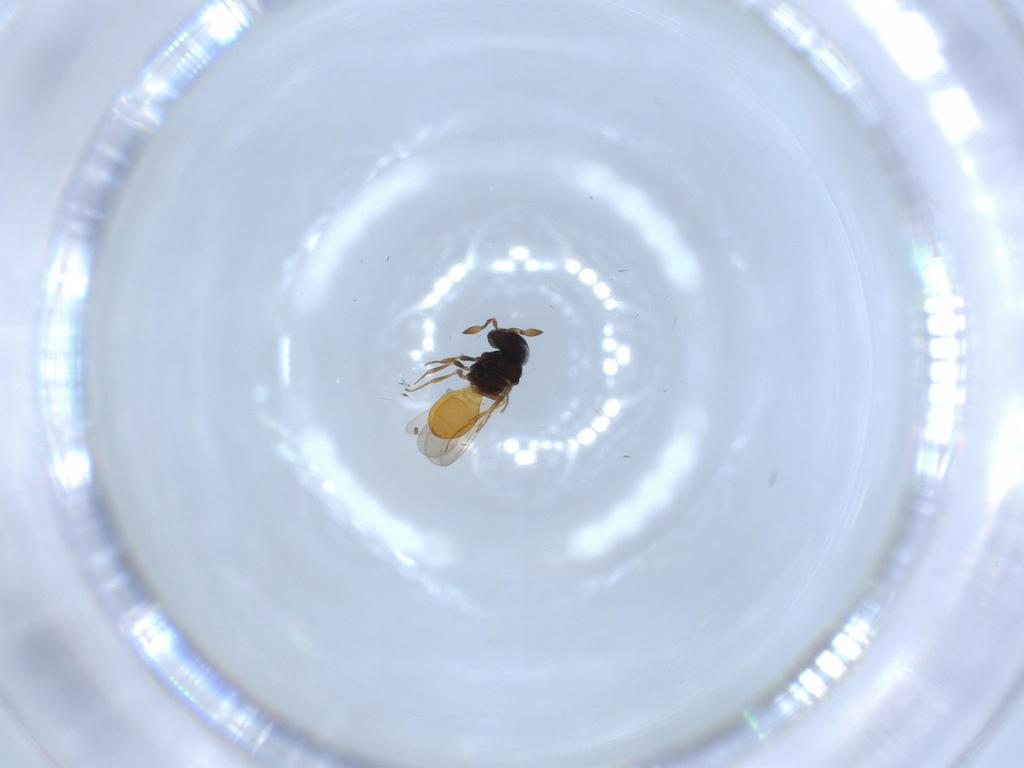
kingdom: Animalia
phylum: Arthropoda
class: Insecta
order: Hymenoptera
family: Scelionidae
